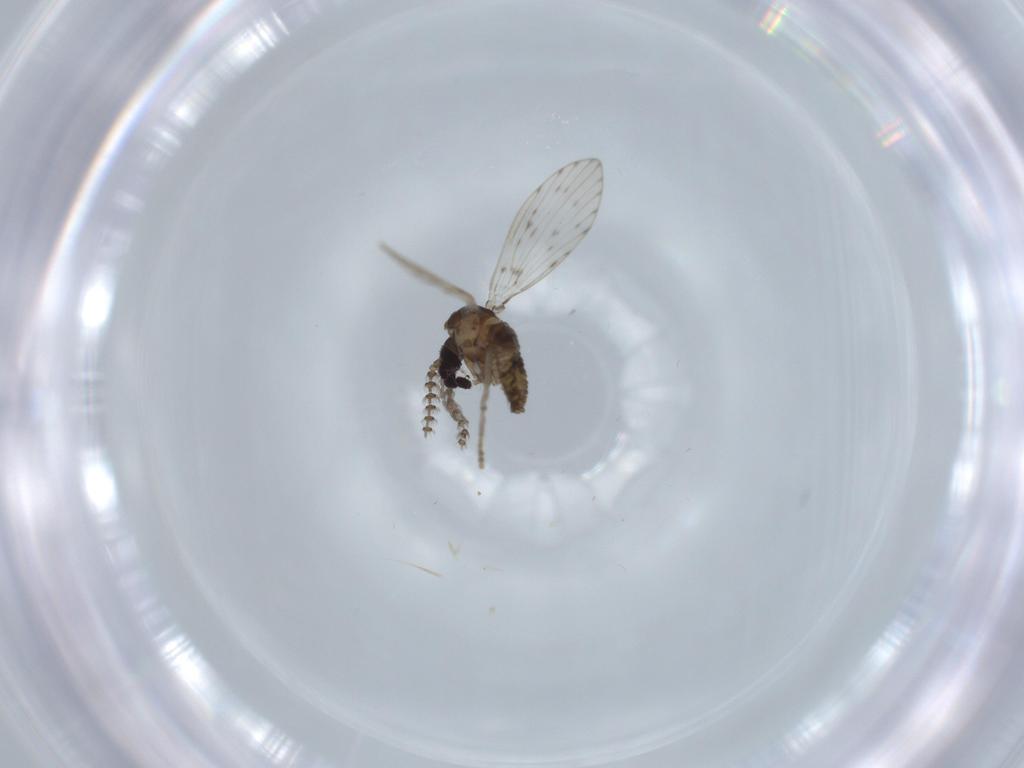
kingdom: Animalia
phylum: Arthropoda
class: Insecta
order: Diptera
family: Psychodidae
